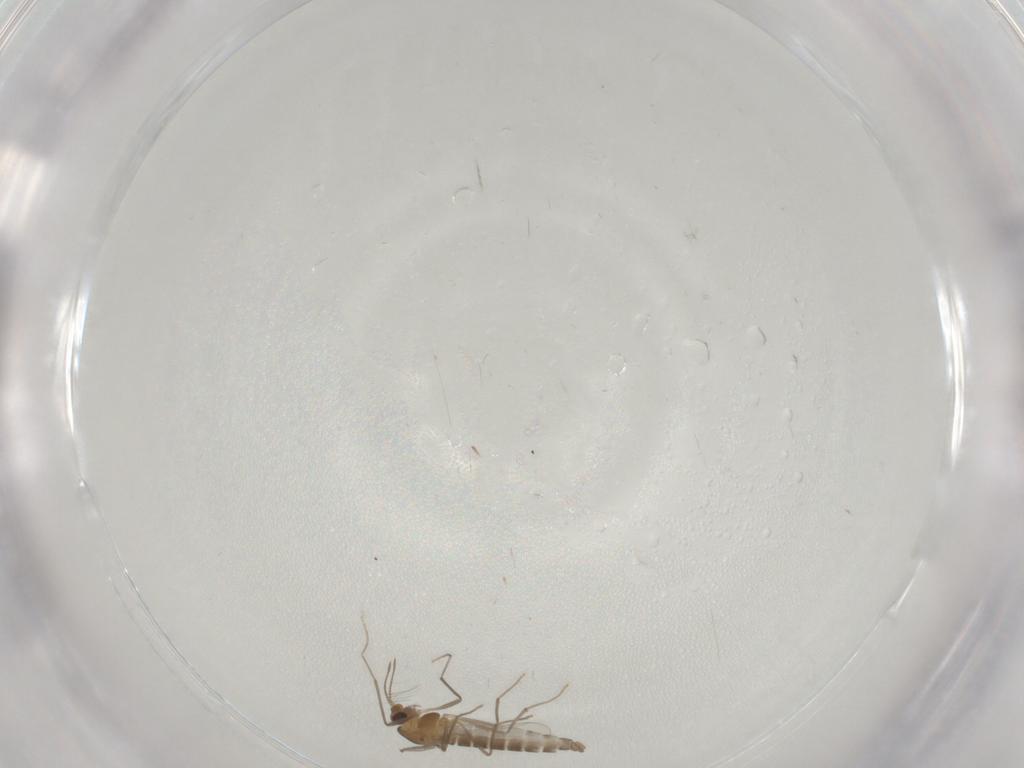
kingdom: Animalia
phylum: Arthropoda
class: Insecta
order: Diptera
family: Chironomidae
